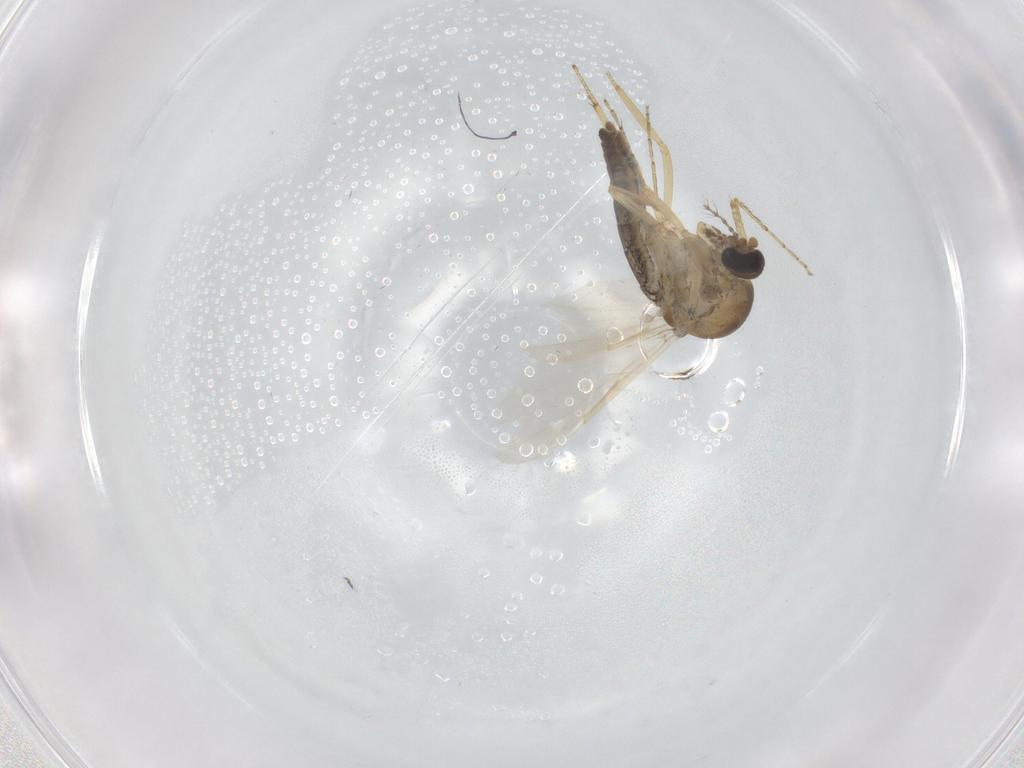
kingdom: Animalia
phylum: Arthropoda
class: Insecta
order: Diptera
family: Ceratopogonidae
